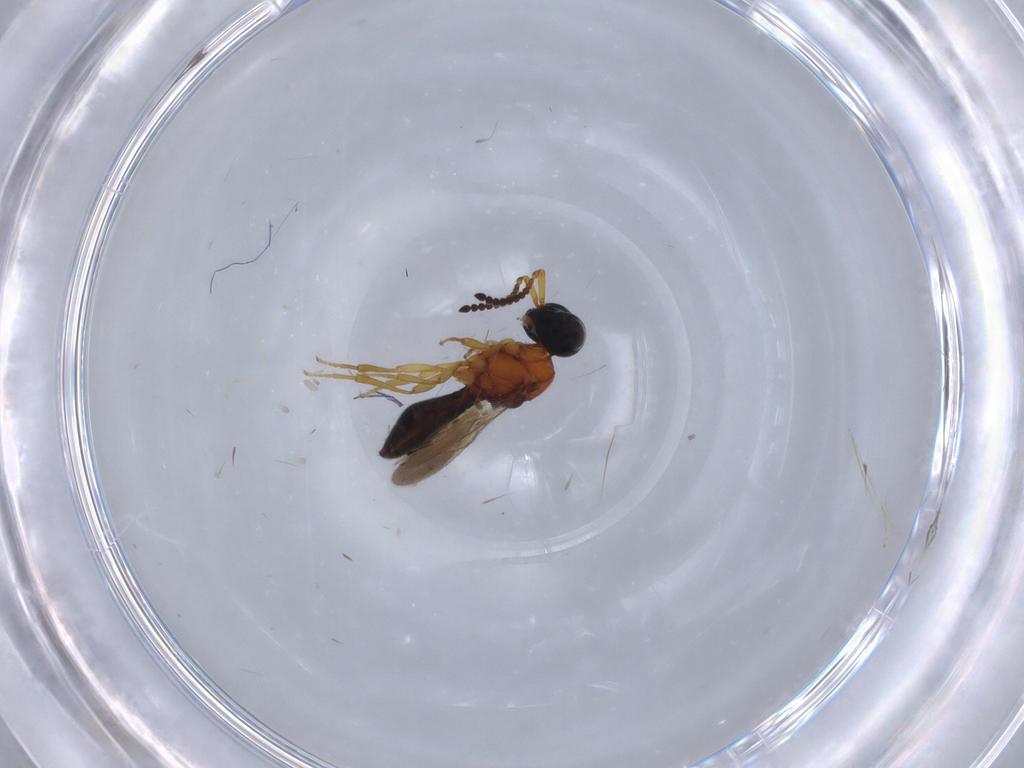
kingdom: Animalia
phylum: Arthropoda
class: Insecta
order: Hymenoptera
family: Scelionidae
